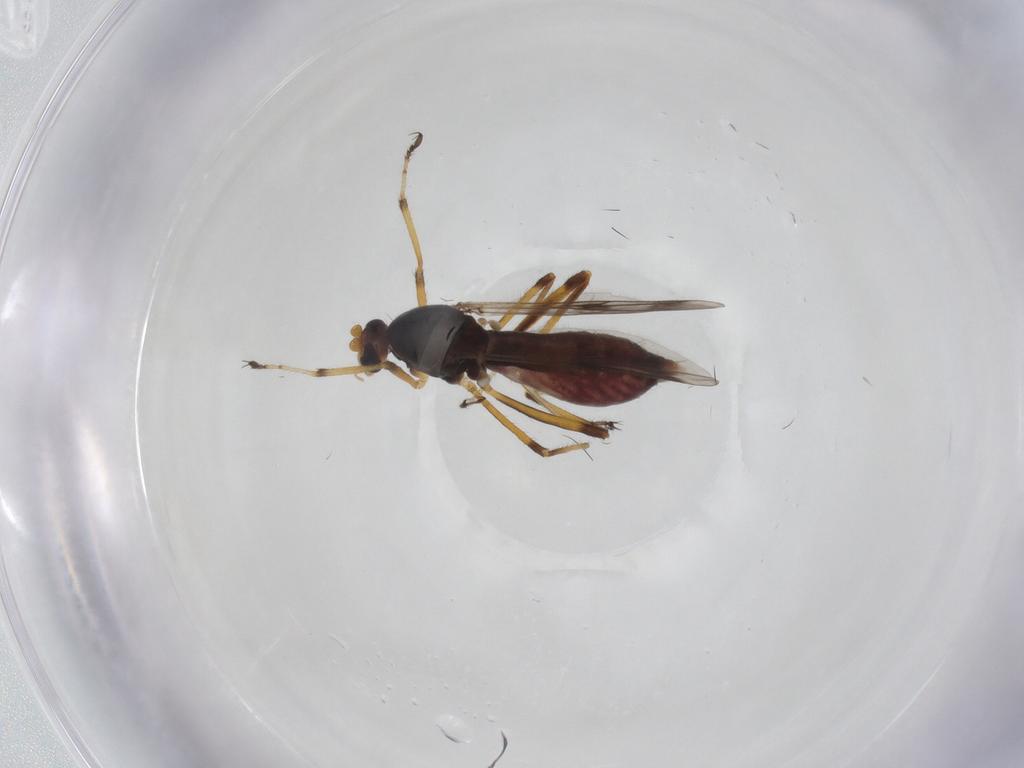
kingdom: Animalia
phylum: Arthropoda
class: Insecta
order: Diptera
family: Ceratopogonidae
